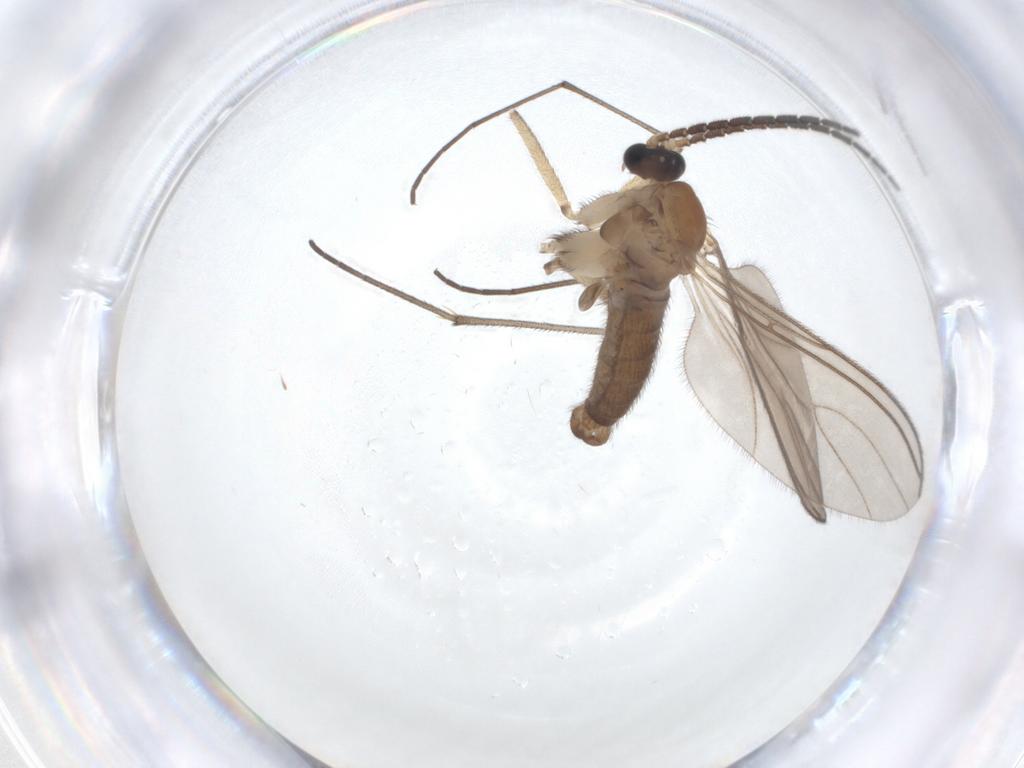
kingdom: Animalia
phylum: Arthropoda
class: Insecta
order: Diptera
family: Sciaridae
